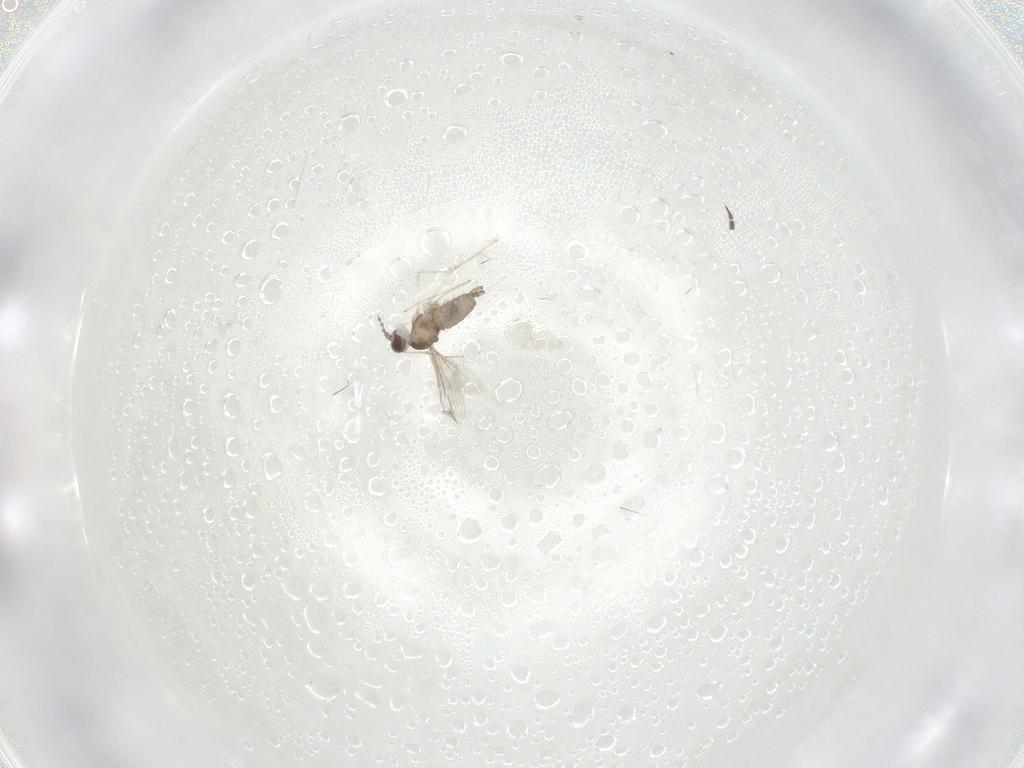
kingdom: Animalia
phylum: Arthropoda
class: Insecta
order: Diptera
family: Sciaridae
